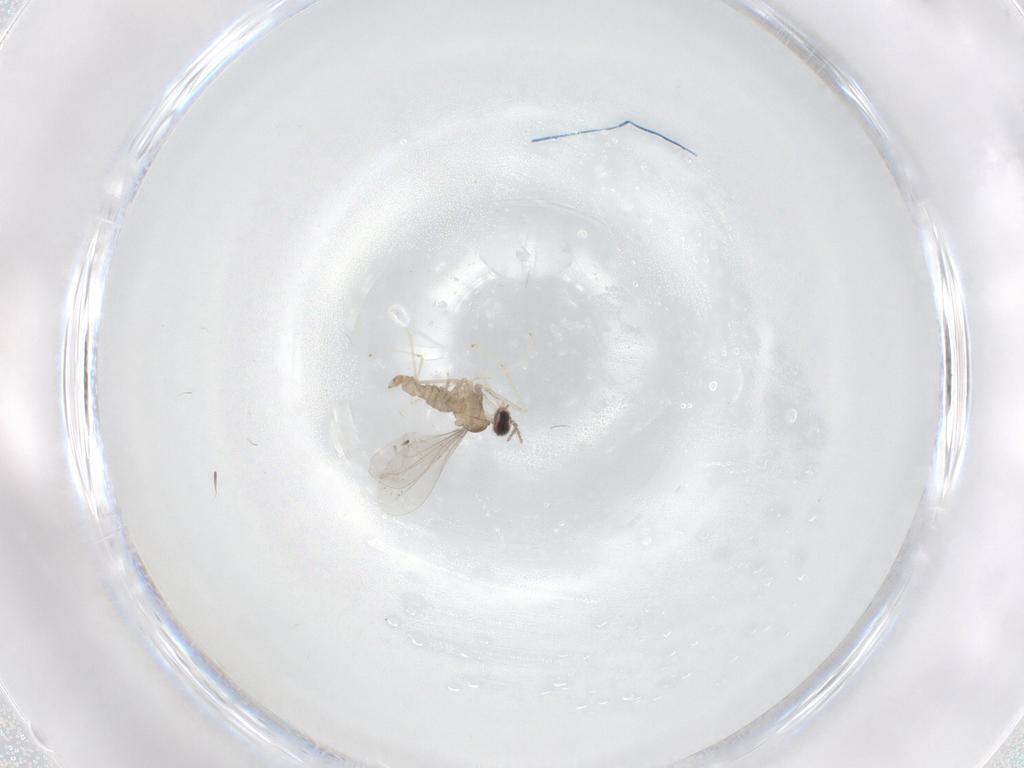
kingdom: Animalia
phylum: Arthropoda
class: Insecta
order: Diptera
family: Cecidomyiidae
